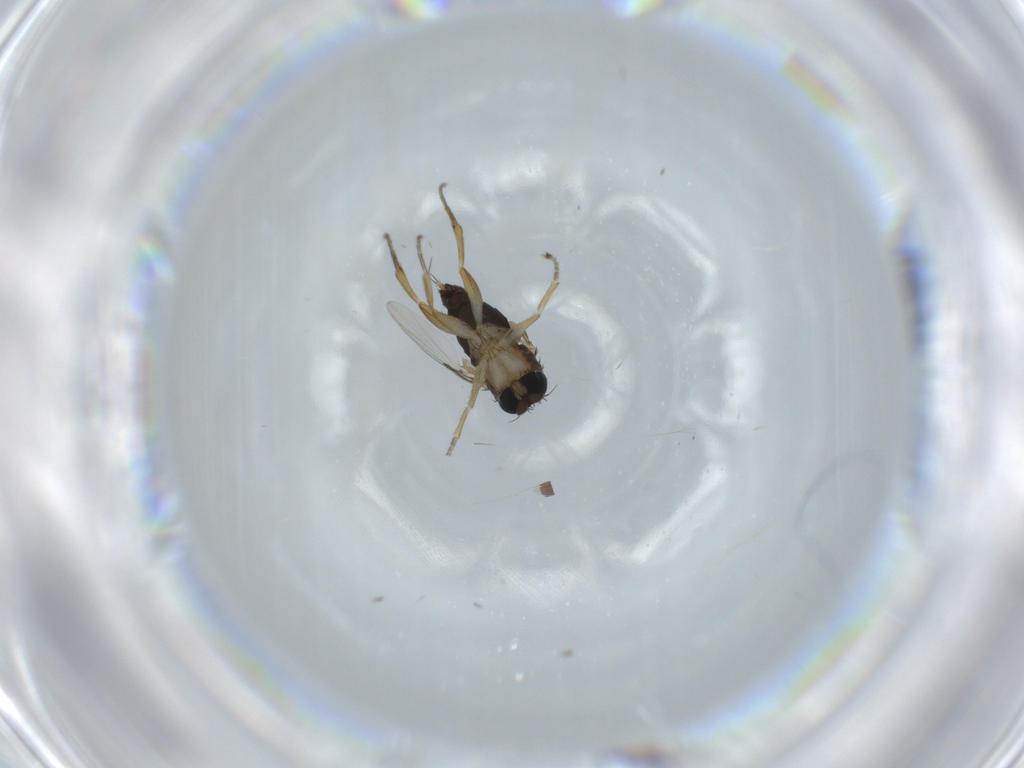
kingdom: Animalia
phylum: Arthropoda
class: Insecta
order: Diptera
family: Phoridae
